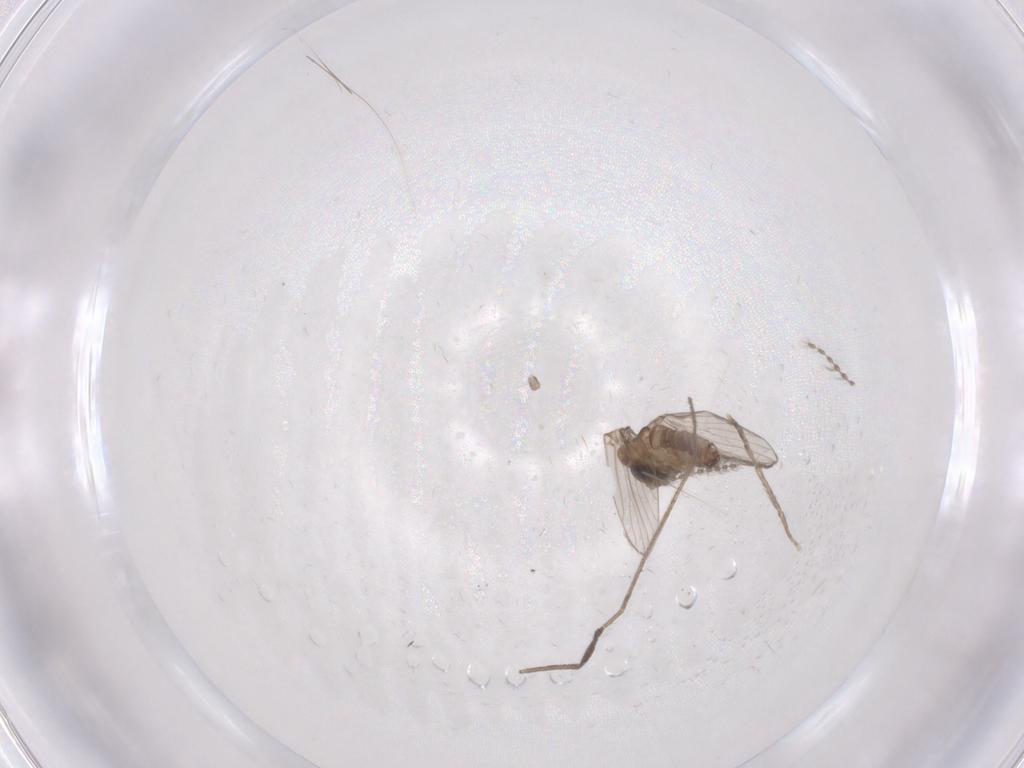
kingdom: Animalia
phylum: Arthropoda
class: Insecta
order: Diptera
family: Limoniidae
